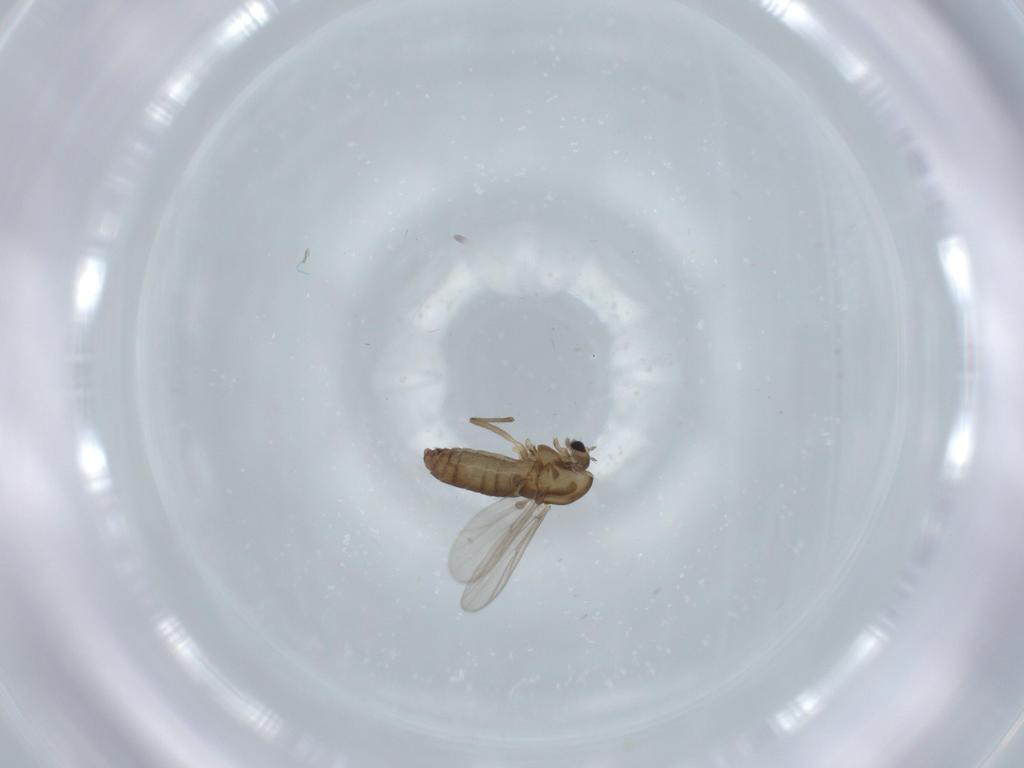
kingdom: Animalia
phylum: Arthropoda
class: Insecta
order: Diptera
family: Chironomidae
